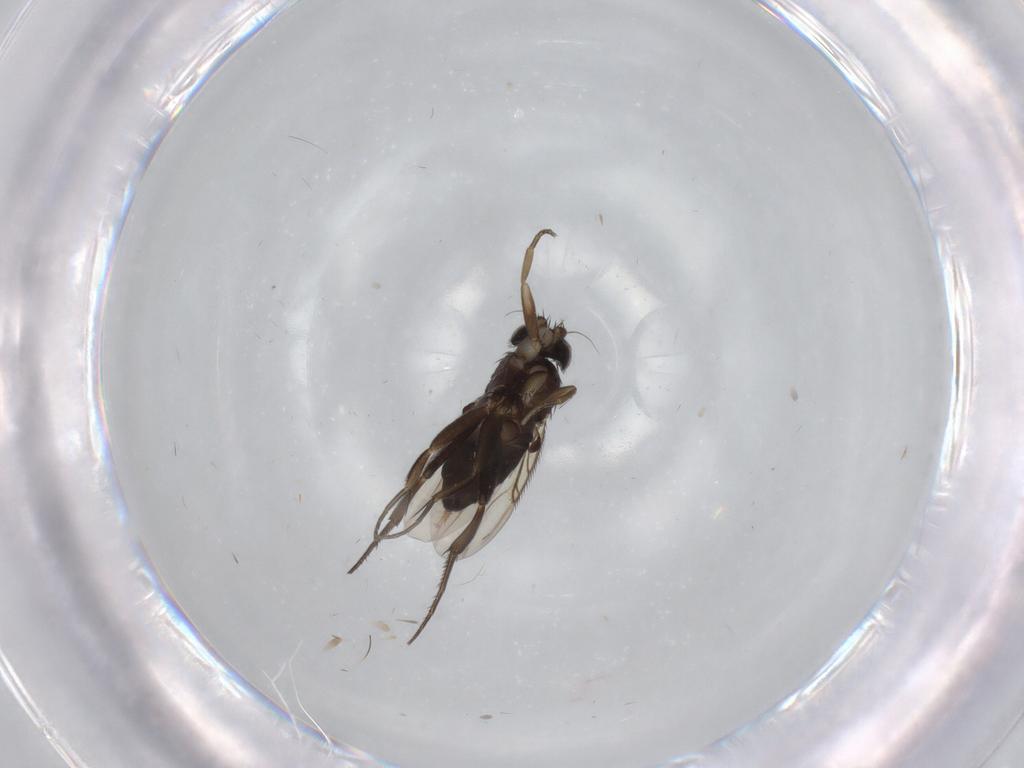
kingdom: Animalia
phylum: Arthropoda
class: Insecta
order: Diptera
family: Phoridae
